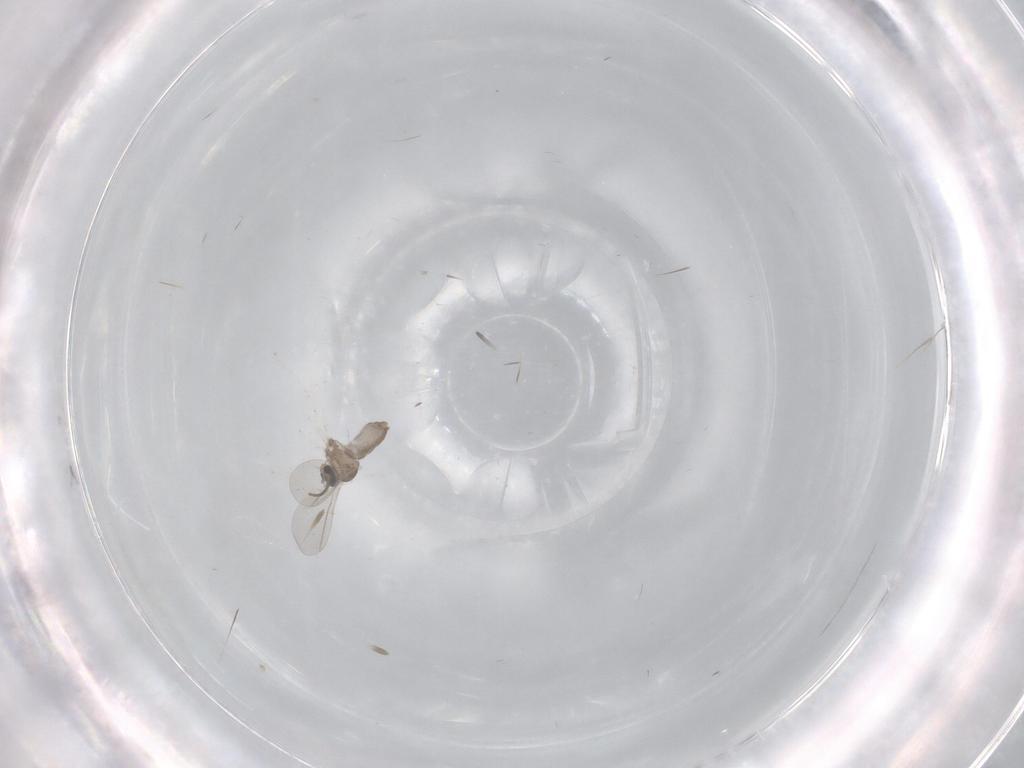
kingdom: Animalia
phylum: Arthropoda
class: Insecta
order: Diptera
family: Cecidomyiidae
